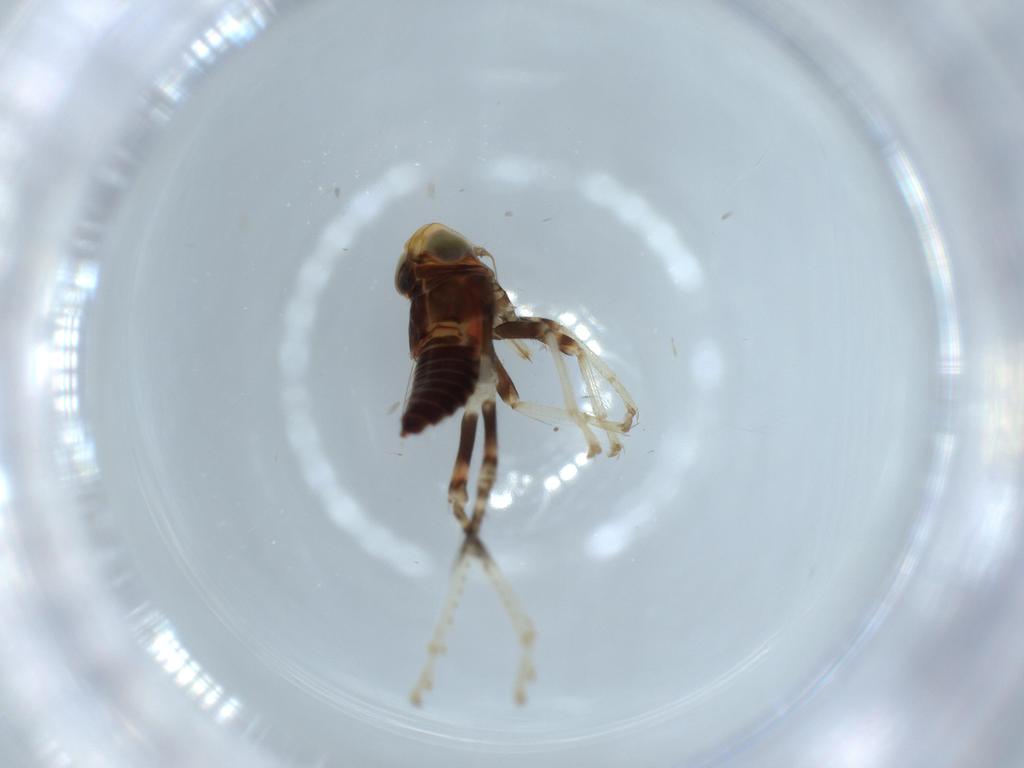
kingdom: Animalia
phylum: Arthropoda
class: Insecta
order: Hemiptera
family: Cicadellidae
